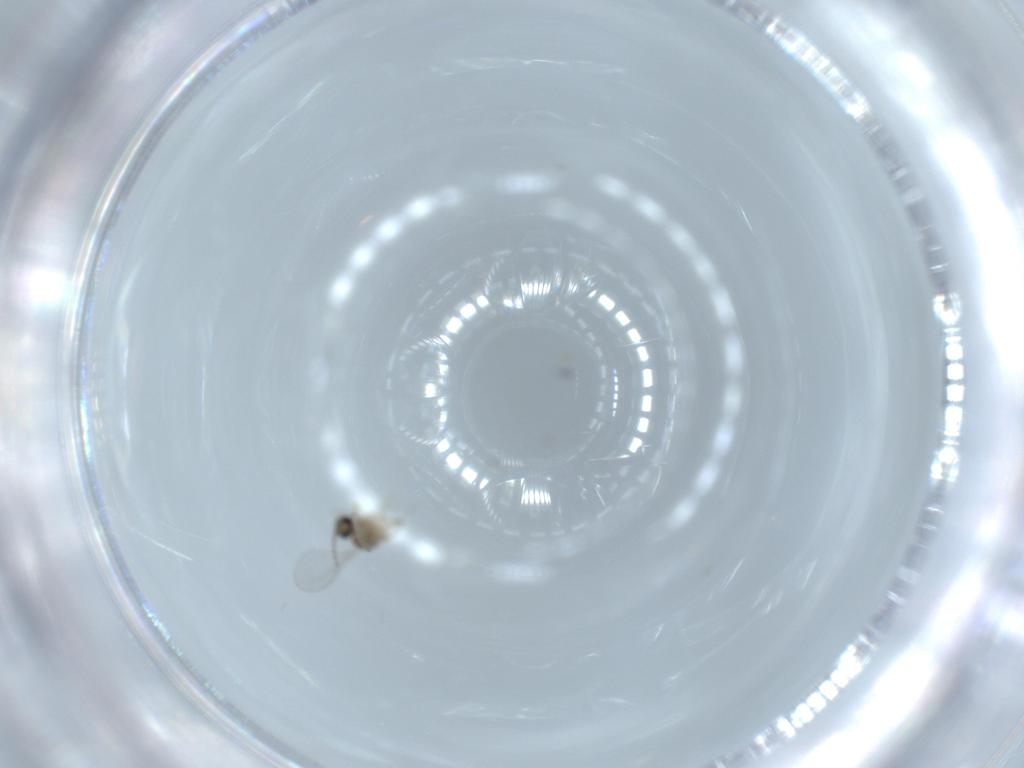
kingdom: Animalia
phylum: Arthropoda
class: Insecta
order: Diptera
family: Cecidomyiidae
